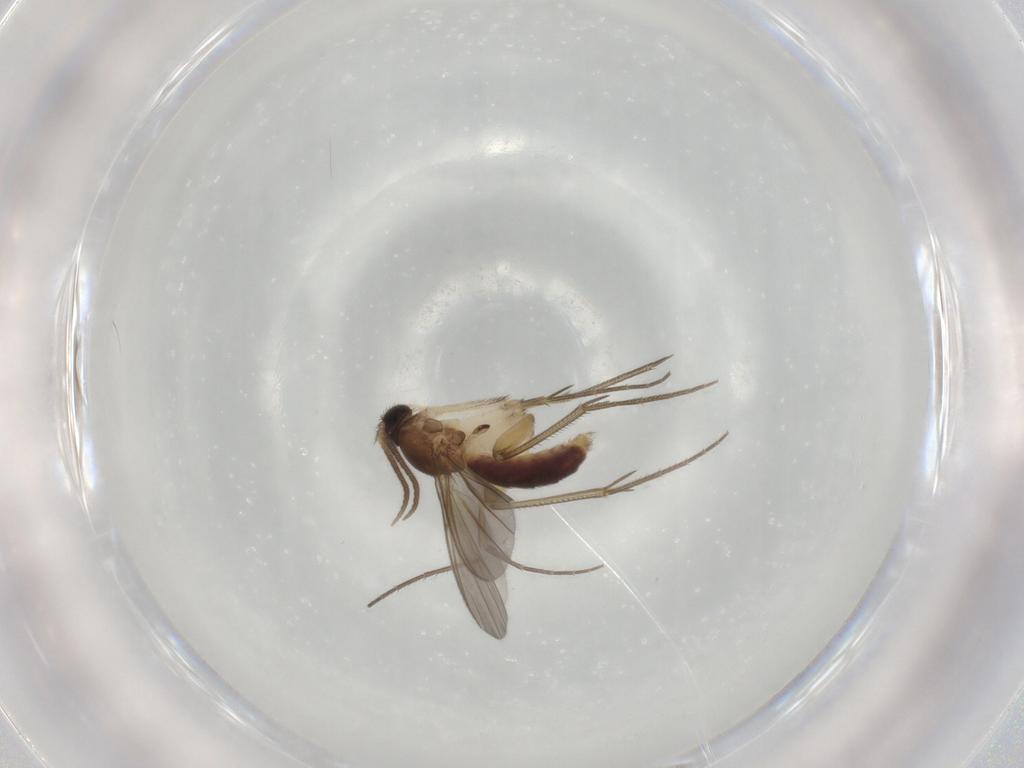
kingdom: Animalia
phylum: Arthropoda
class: Insecta
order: Diptera
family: Mycetophilidae
